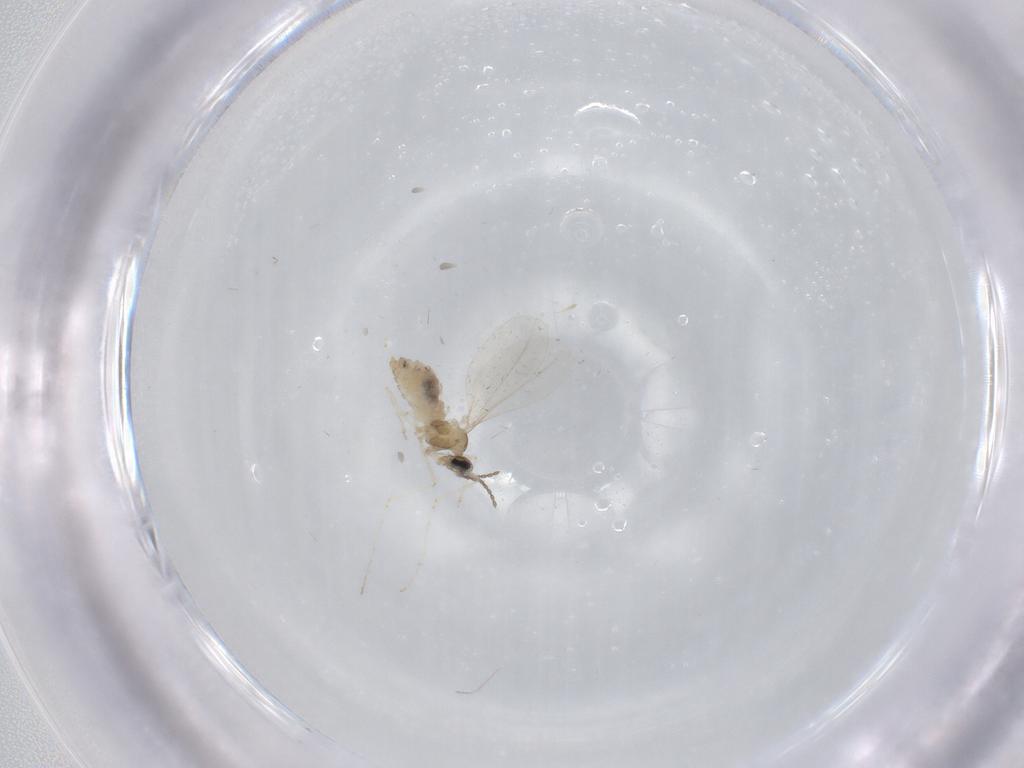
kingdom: Animalia
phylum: Arthropoda
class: Insecta
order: Diptera
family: Cecidomyiidae
